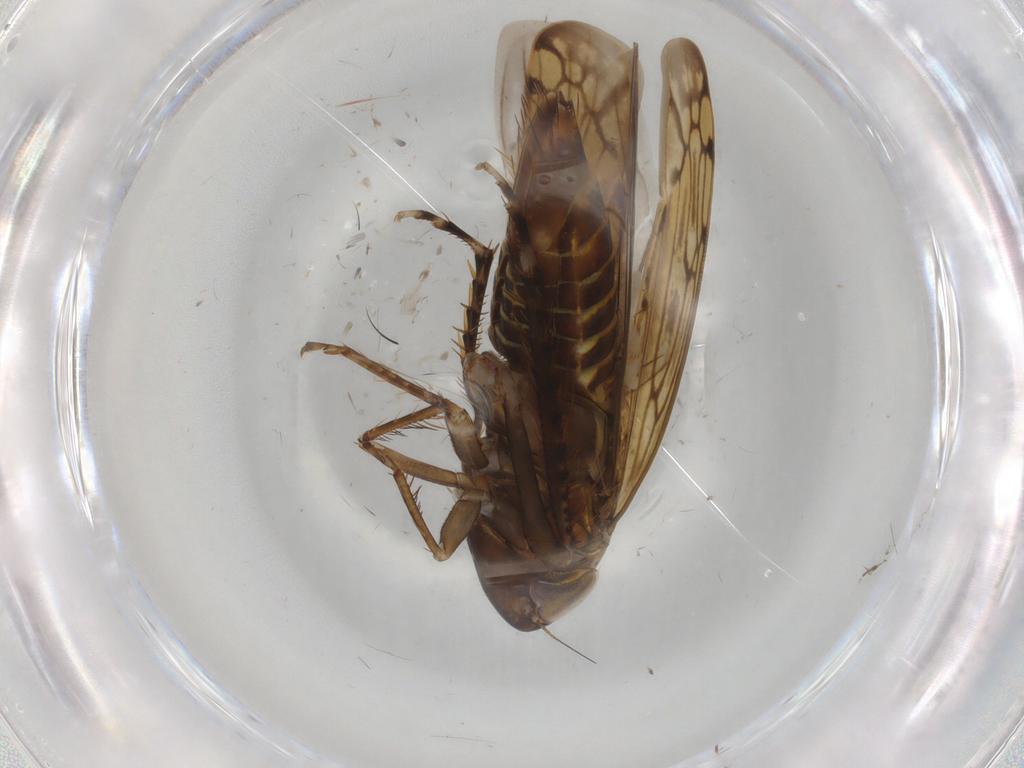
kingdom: Animalia
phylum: Arthropoda
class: Insecta
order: Hemiptera
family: Cicadellidae
